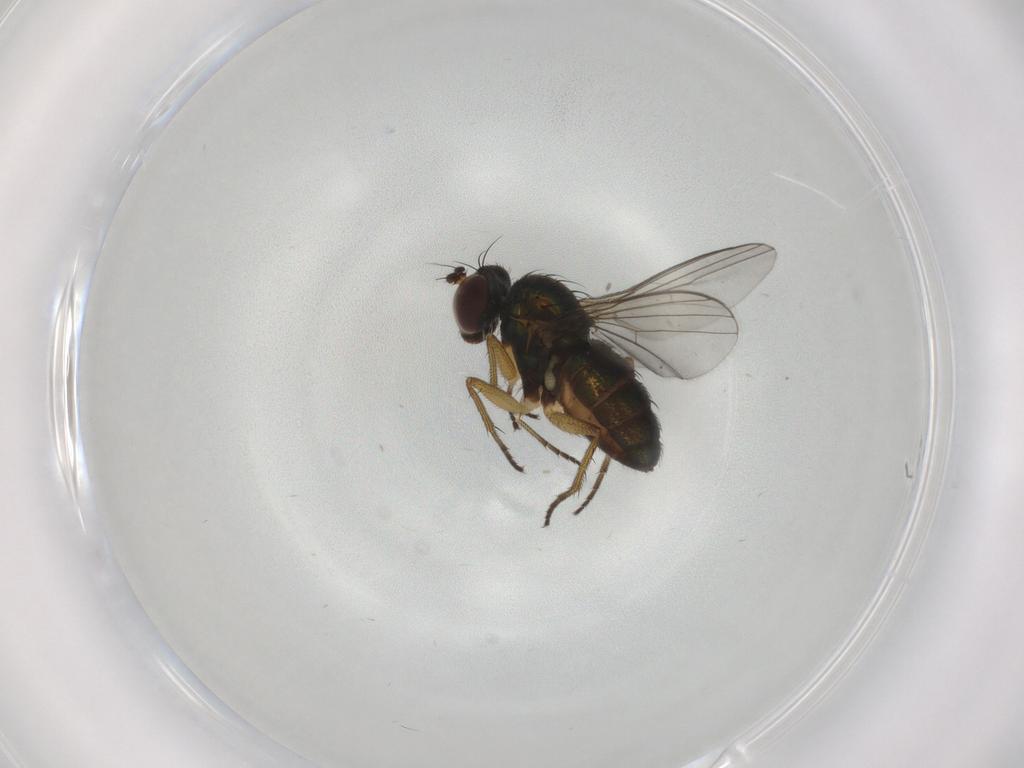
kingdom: Animalia
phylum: Arthropoda
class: Insecta
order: Diptera
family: Dolichopodidae
